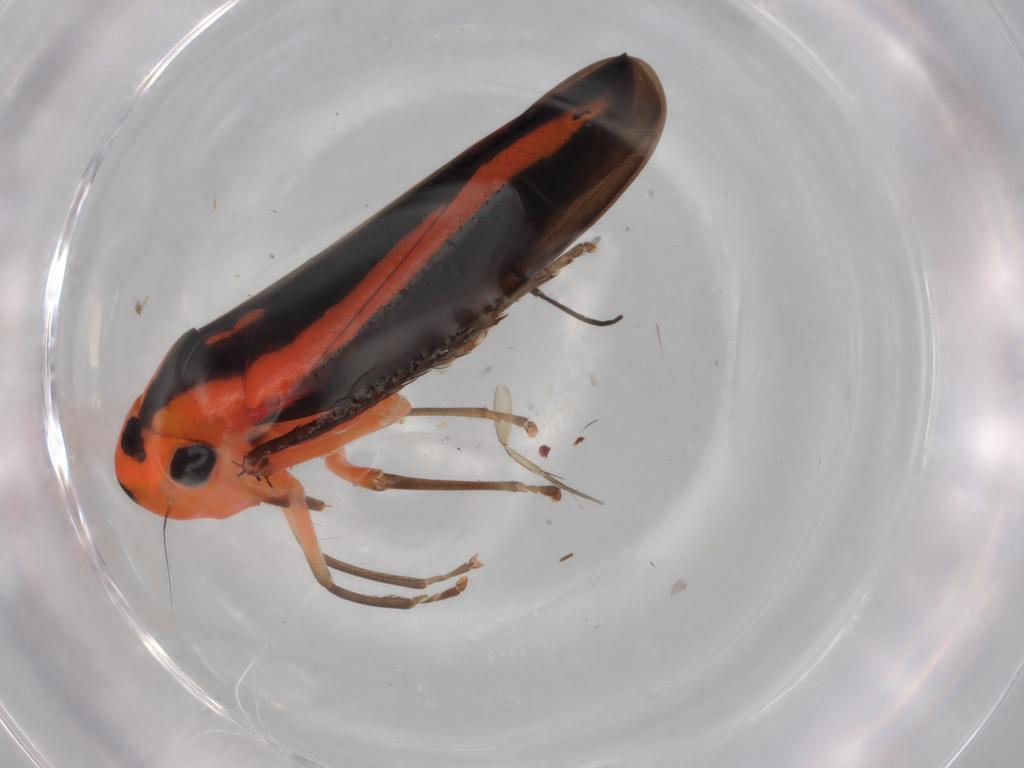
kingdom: Animalia
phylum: Arthropoda
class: Insecta
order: Hemiptera
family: Cicadellidae
